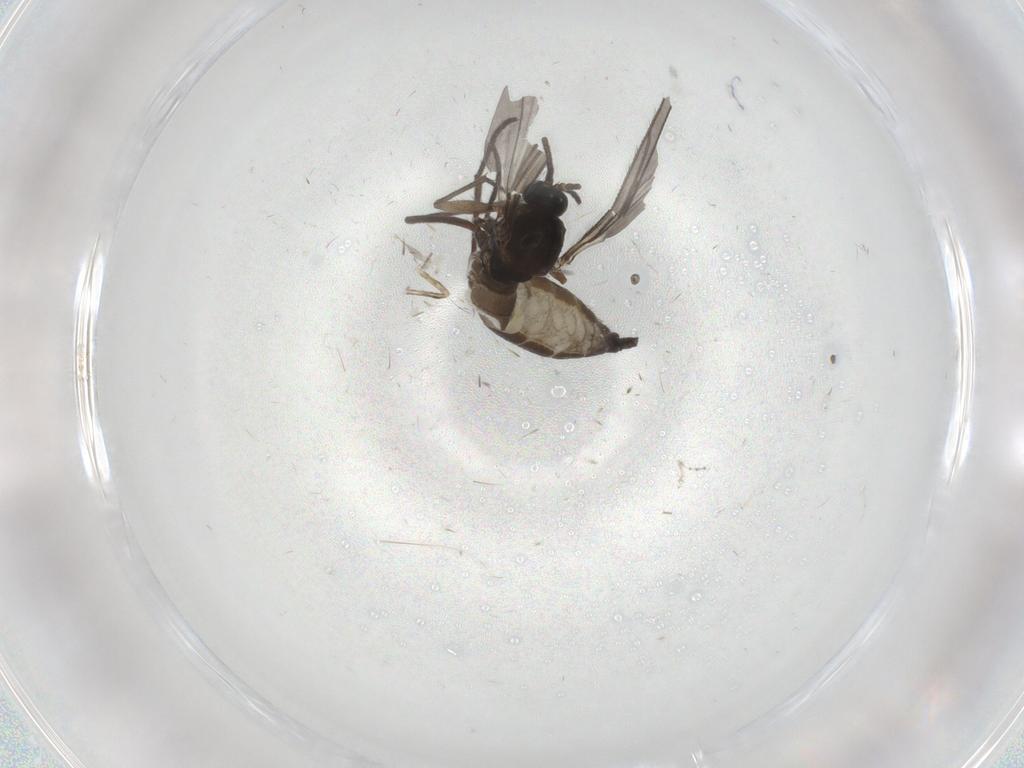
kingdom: Animalia
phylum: Arthropoda
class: Insecta
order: Diptera
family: Sciaridae
